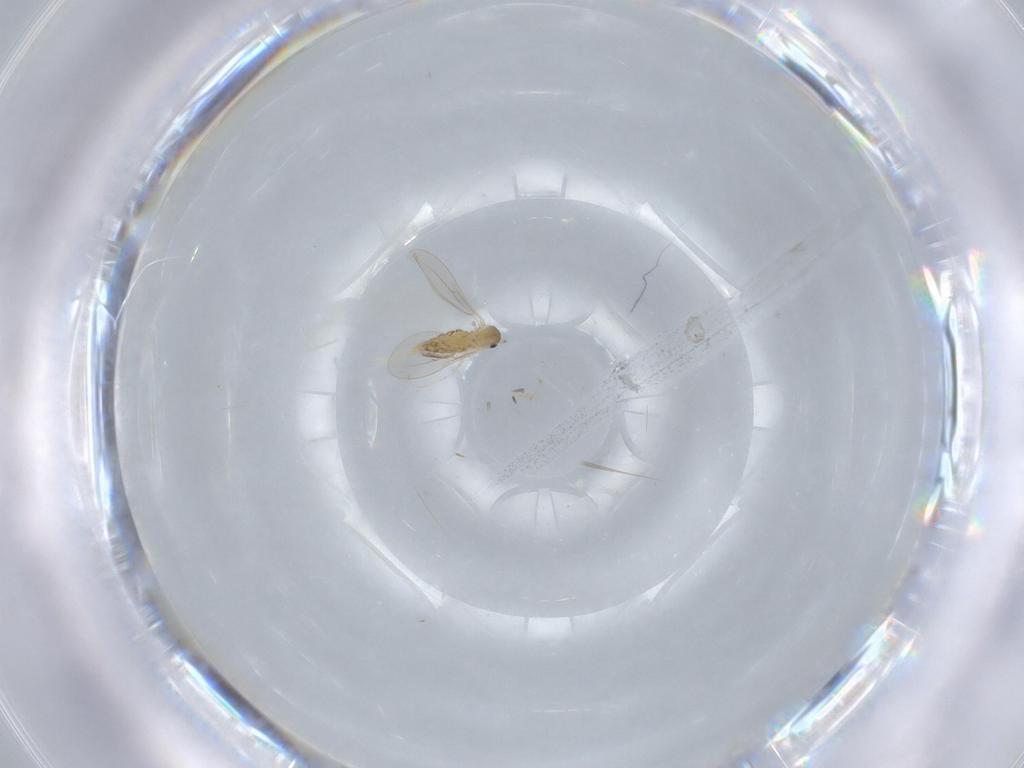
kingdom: Animalia
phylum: Arthropoda
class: Insecta
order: Diptera
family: Cecidomyiidae
